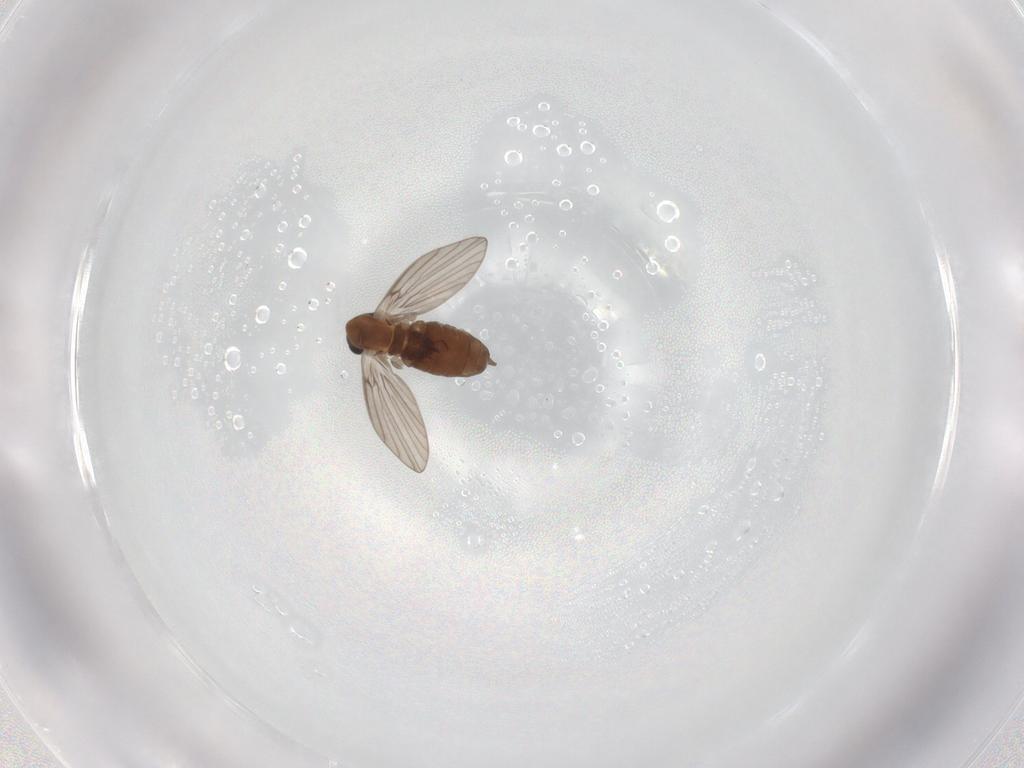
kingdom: Animalia
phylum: Arthropoda
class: Insecta
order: Diptera
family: Psychodidae
